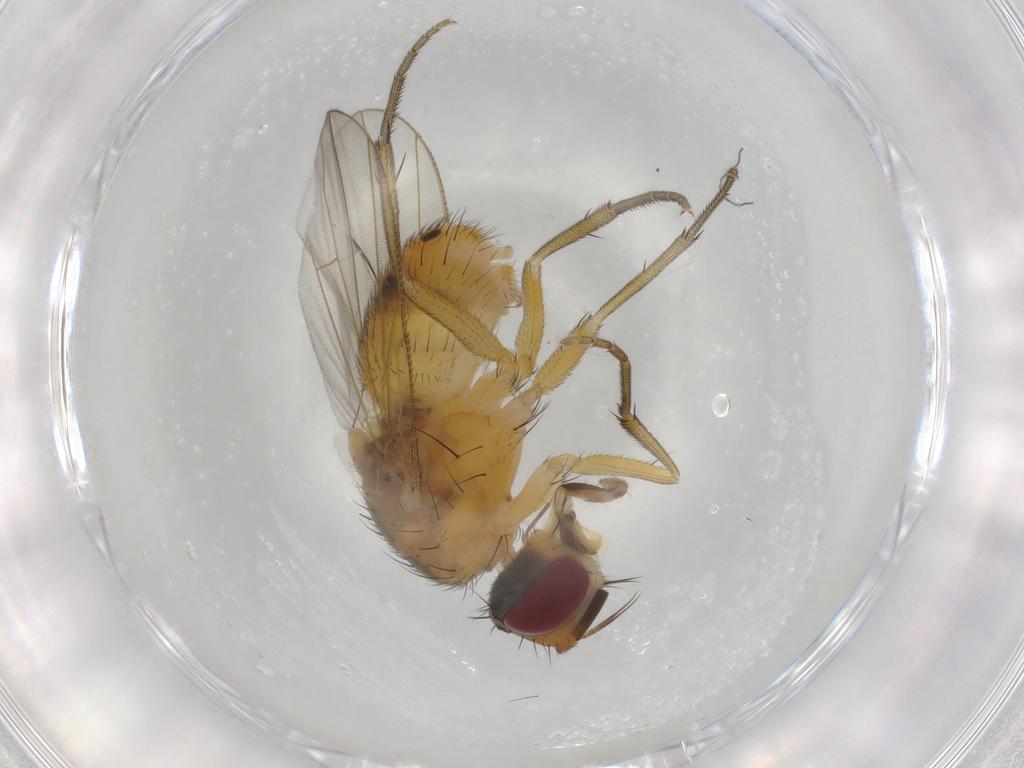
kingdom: Animalia
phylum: Arthropoda
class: Insecta
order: Diptera
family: Muscidae
